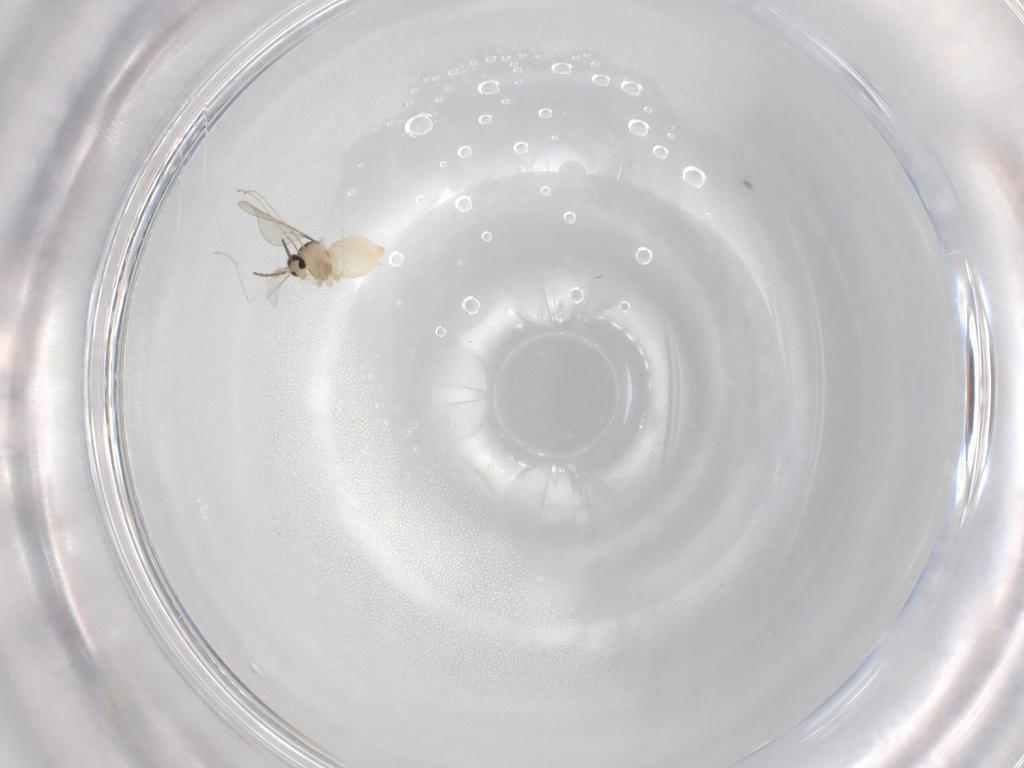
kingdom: Animalia
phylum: Arthropoda
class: Insecta
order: Diptera
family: Cecidomyiidae
